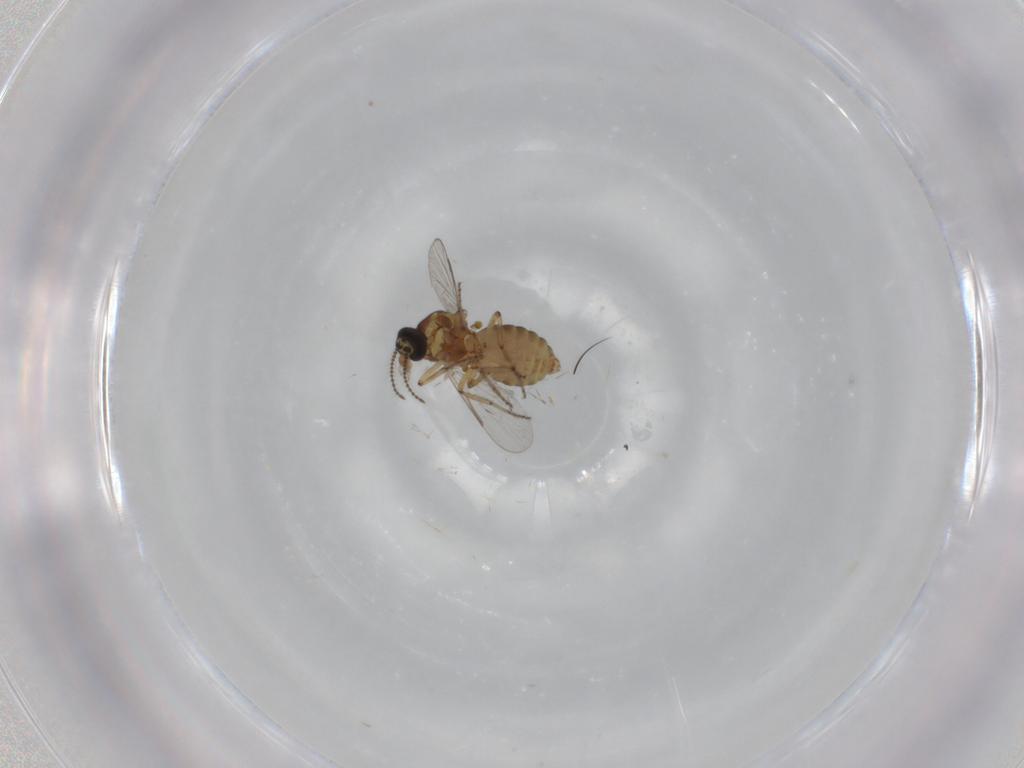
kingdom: Animalia
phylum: Arthropoda
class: Insecta
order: Diptera
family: Ceratopogonidae
